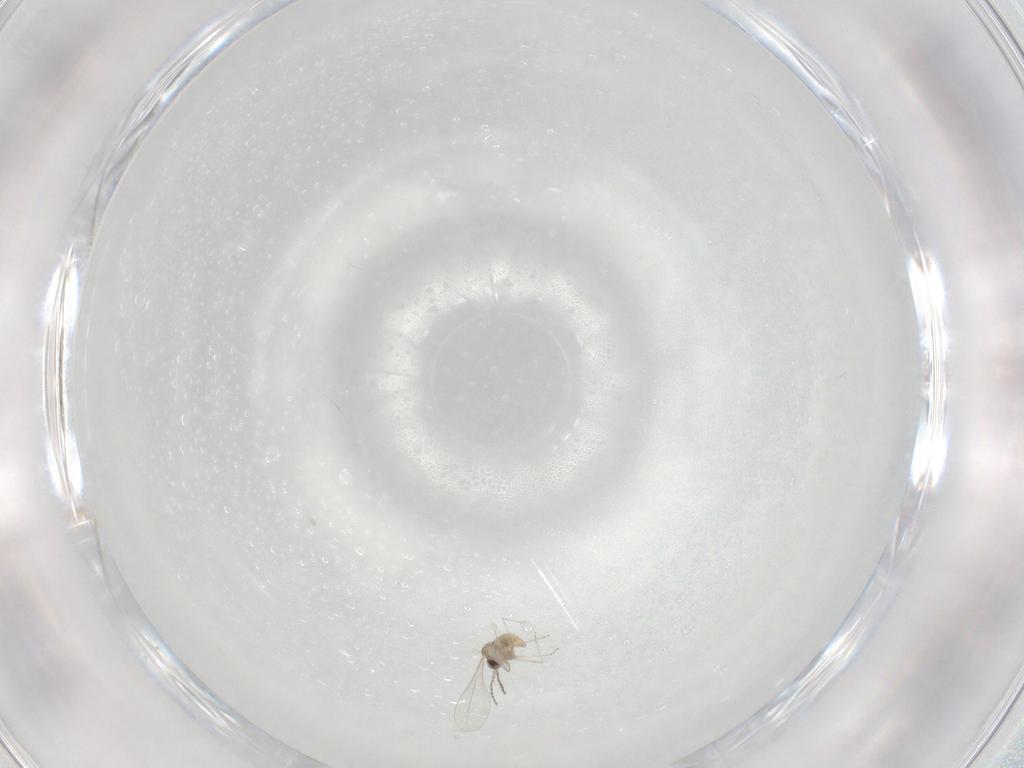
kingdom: Animalia
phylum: Arthropoda
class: Insecta
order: Diptera
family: Cecidomyiidae
